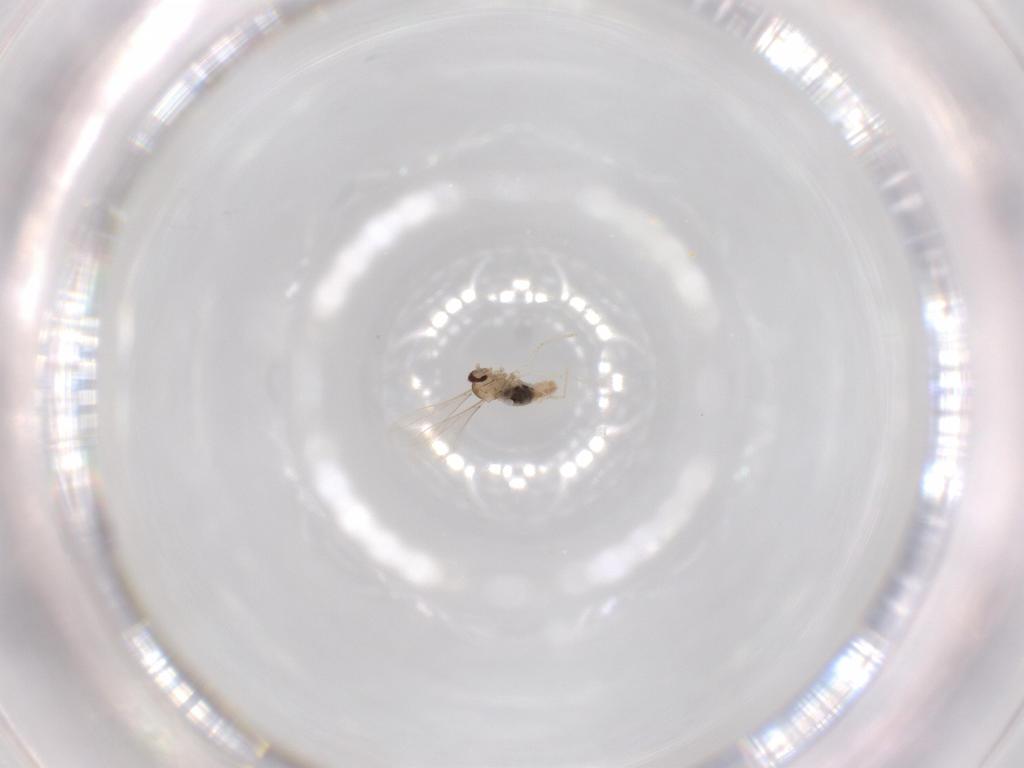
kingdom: Animalia
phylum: Arthropoda
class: Insecta
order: Diptera
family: Cecidomyiidae
